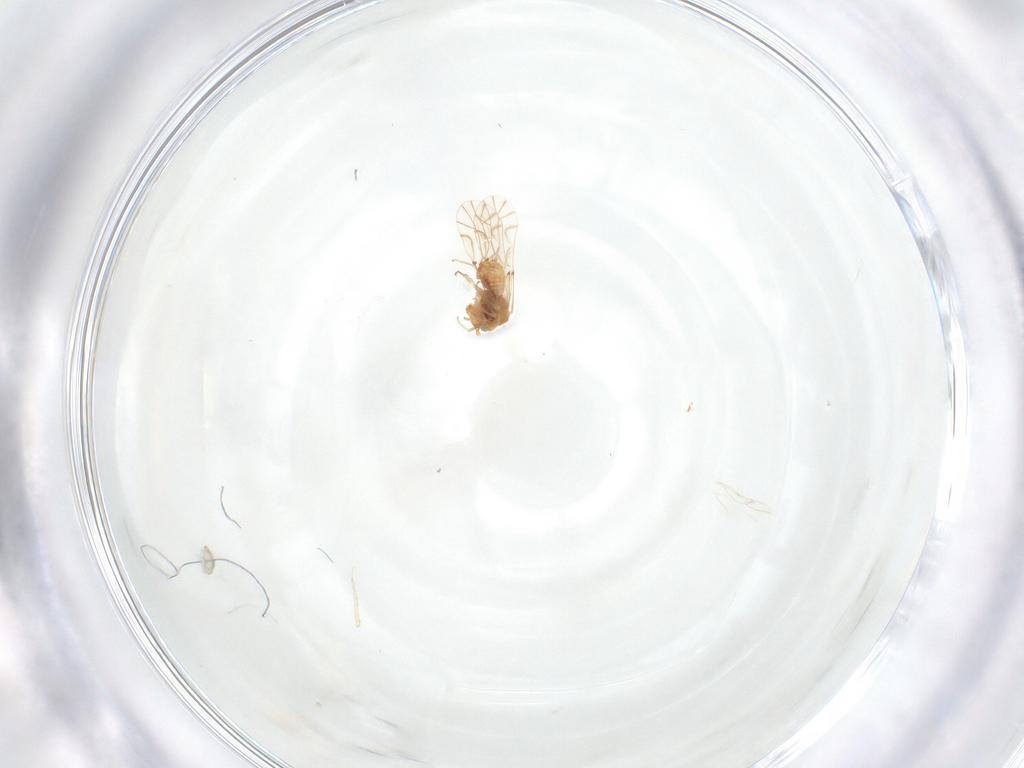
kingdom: Animalia
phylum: Arthropoda
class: Insecta
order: Psocodea
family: Lachesillidae
